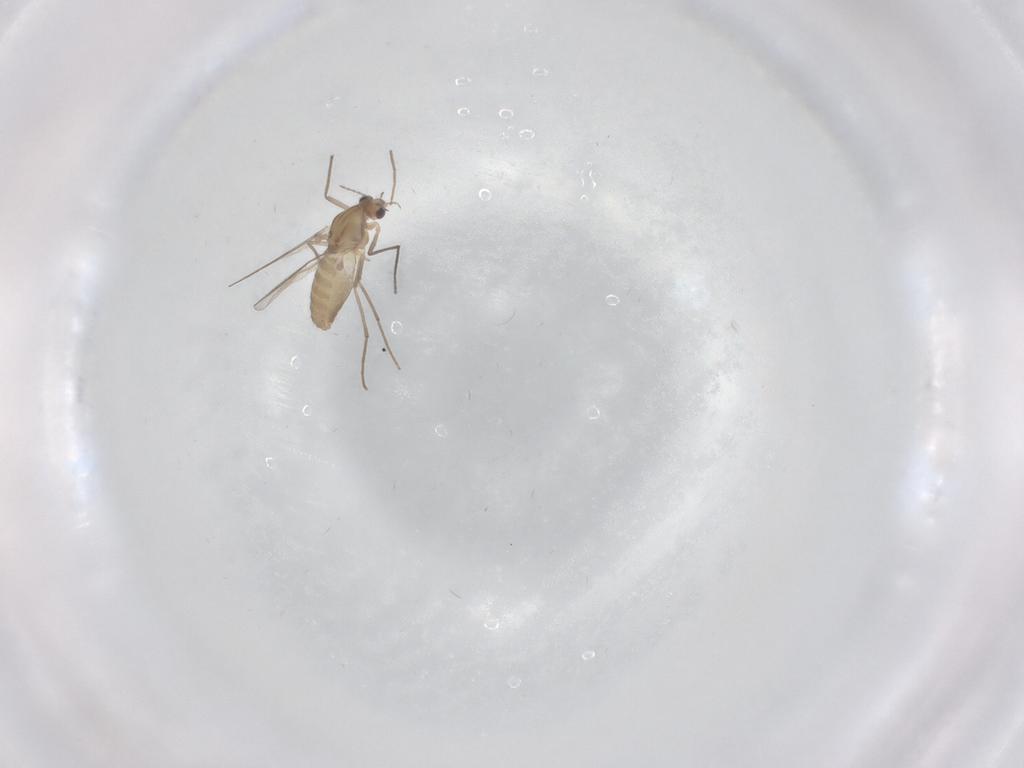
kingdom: Animalia
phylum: Arthropoda
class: Insecta
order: Diptera
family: Chironomidae
